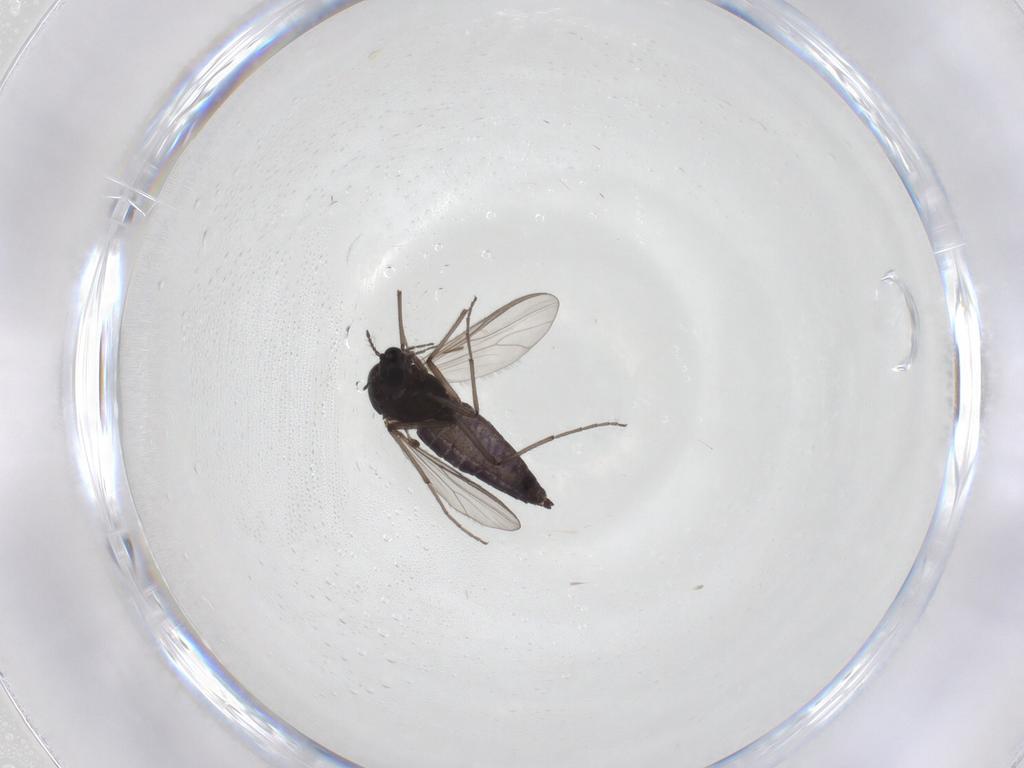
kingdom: Animalia
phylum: Arthropoda
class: Insecta
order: Diptera
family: Chironomidae
